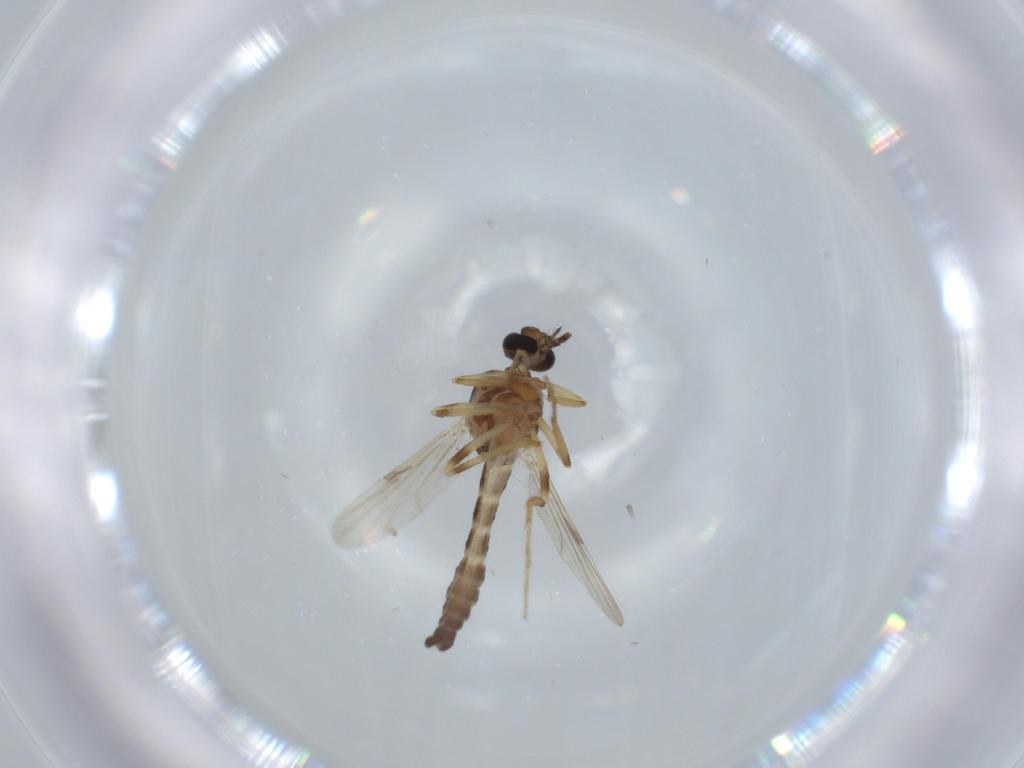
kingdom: Animalia
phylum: Arthropoda
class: Insecta
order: Diptera
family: Ceratopogonidae
